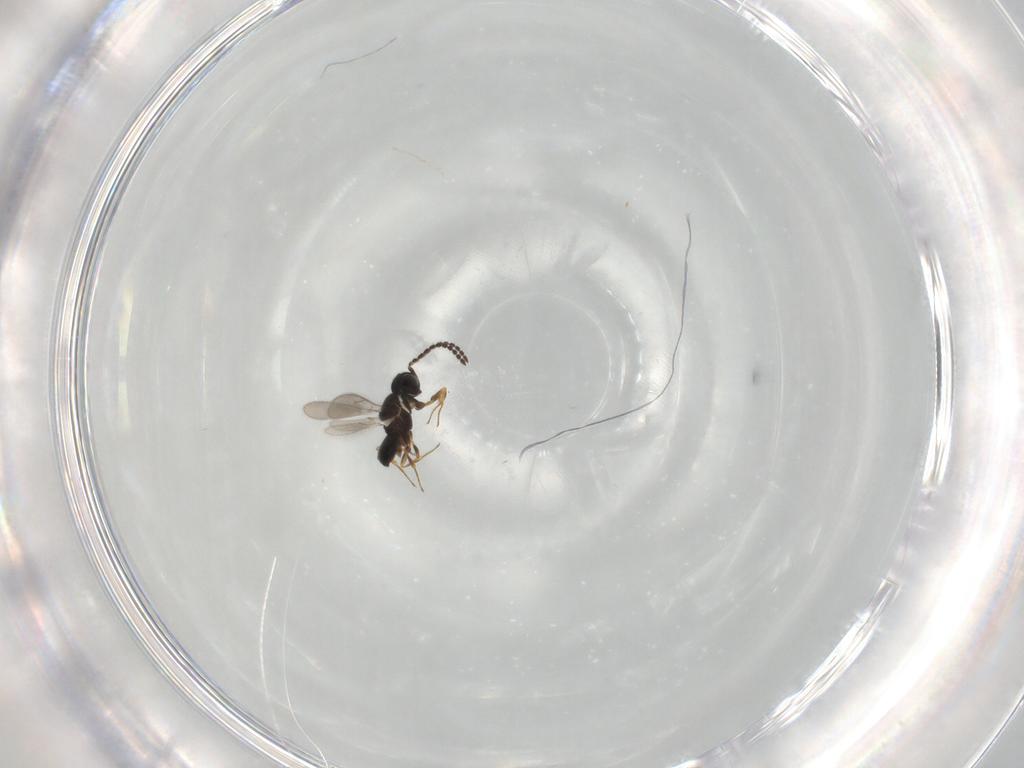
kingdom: Animalia
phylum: Arthropoda
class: Insecta
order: Hymenoptera
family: Scelionidae
